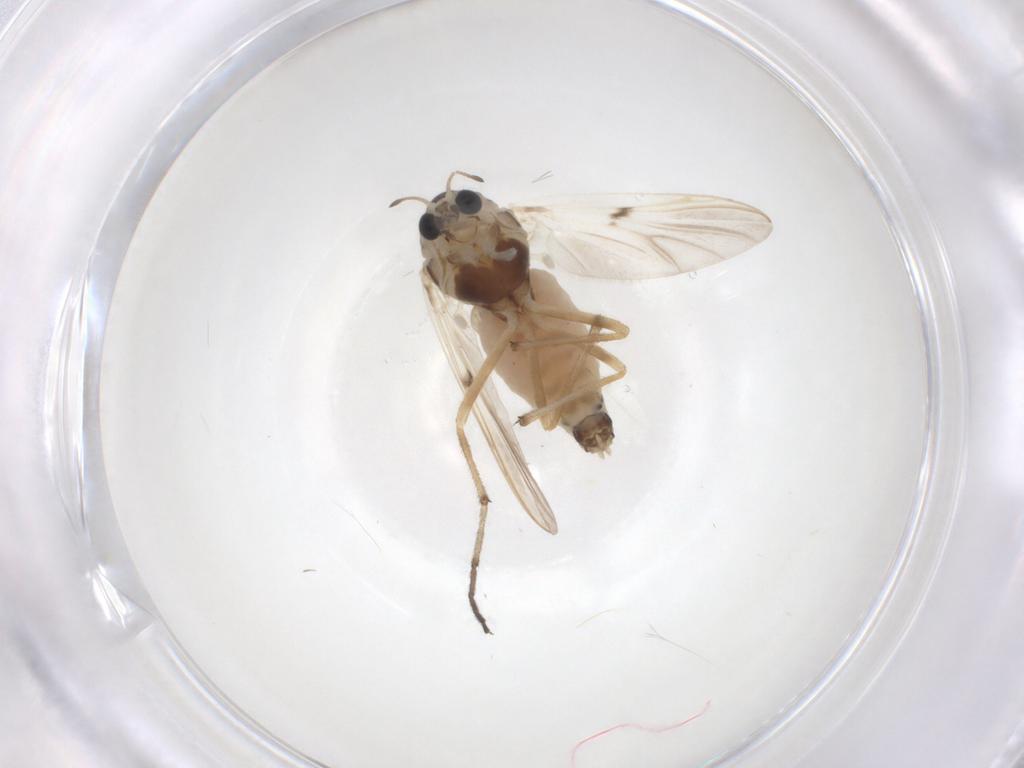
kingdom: Animalia
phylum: Arthropoda
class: Insecta
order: Diptera
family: Chironomidae
